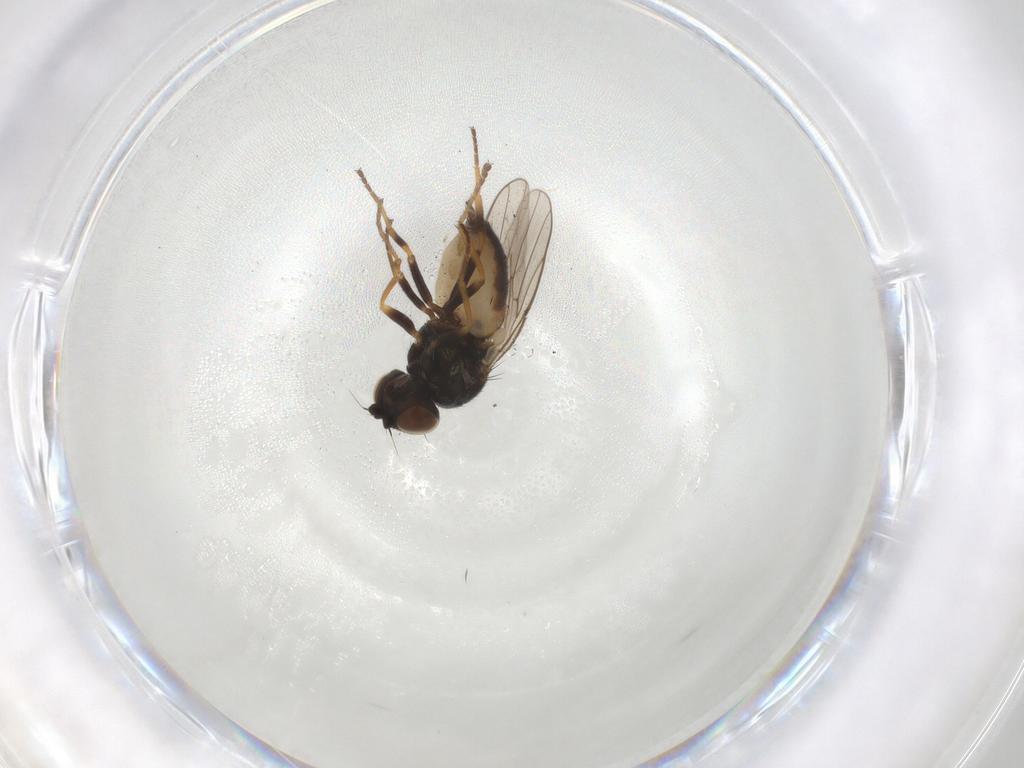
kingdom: Animalia
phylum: Arthropoda
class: Insecta
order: Diptera
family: Chloropidae
